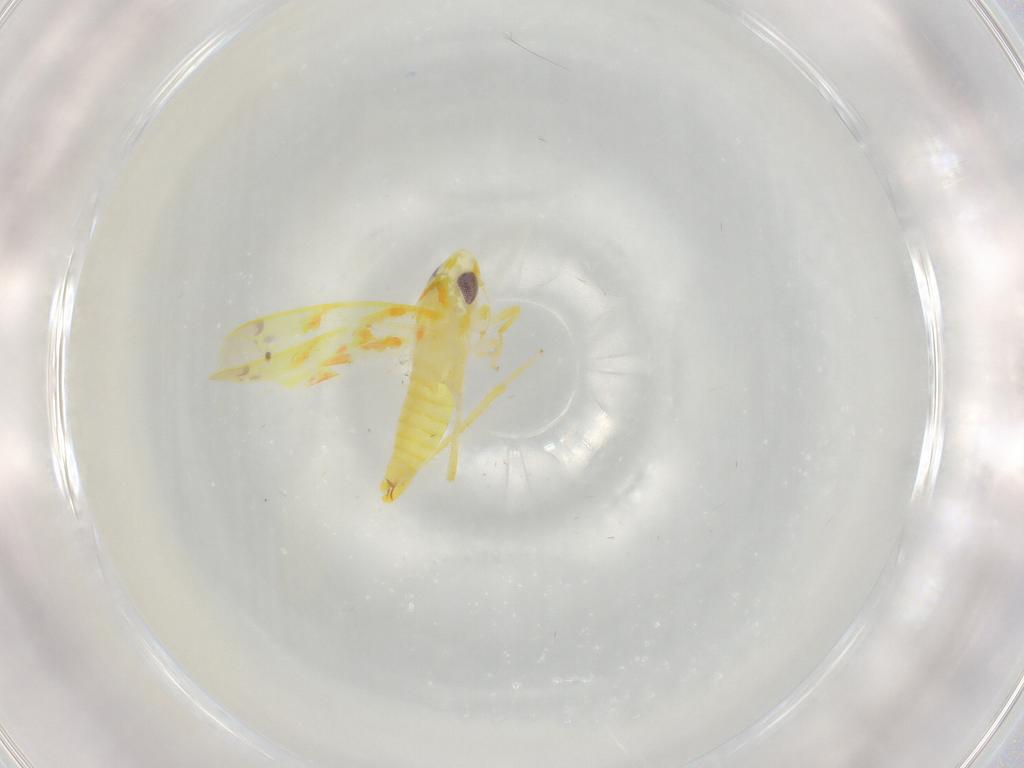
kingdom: Animalia
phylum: Arthropoda
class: Insecta
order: Hemiptera
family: Cicadellidae
